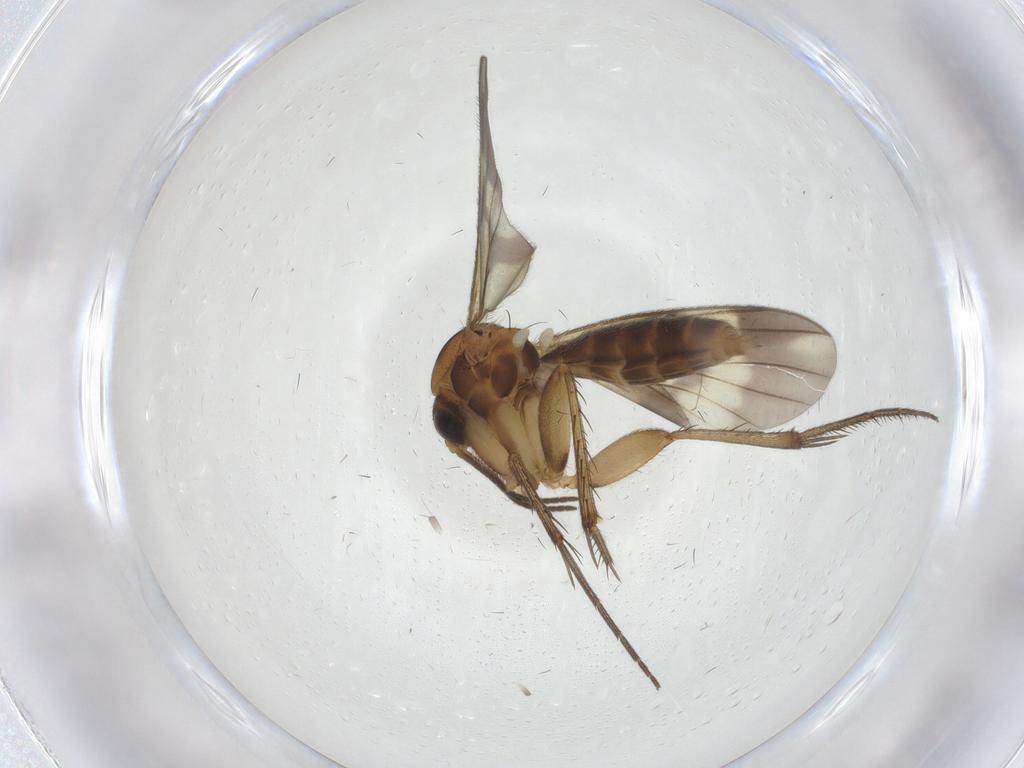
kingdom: Animalia
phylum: Arthropoda
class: Insecta
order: Diptera
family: Mycetophilidae
